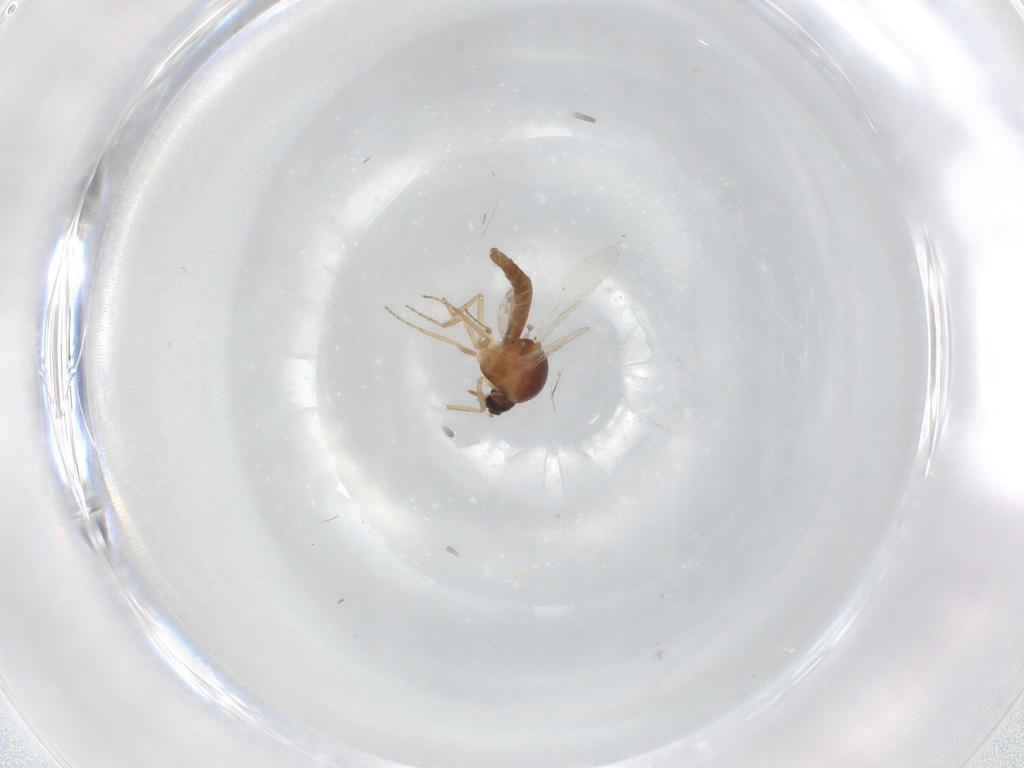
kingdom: Animalia
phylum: Arthropoda
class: Insecta
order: Diptera
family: Ceratopogonidae
